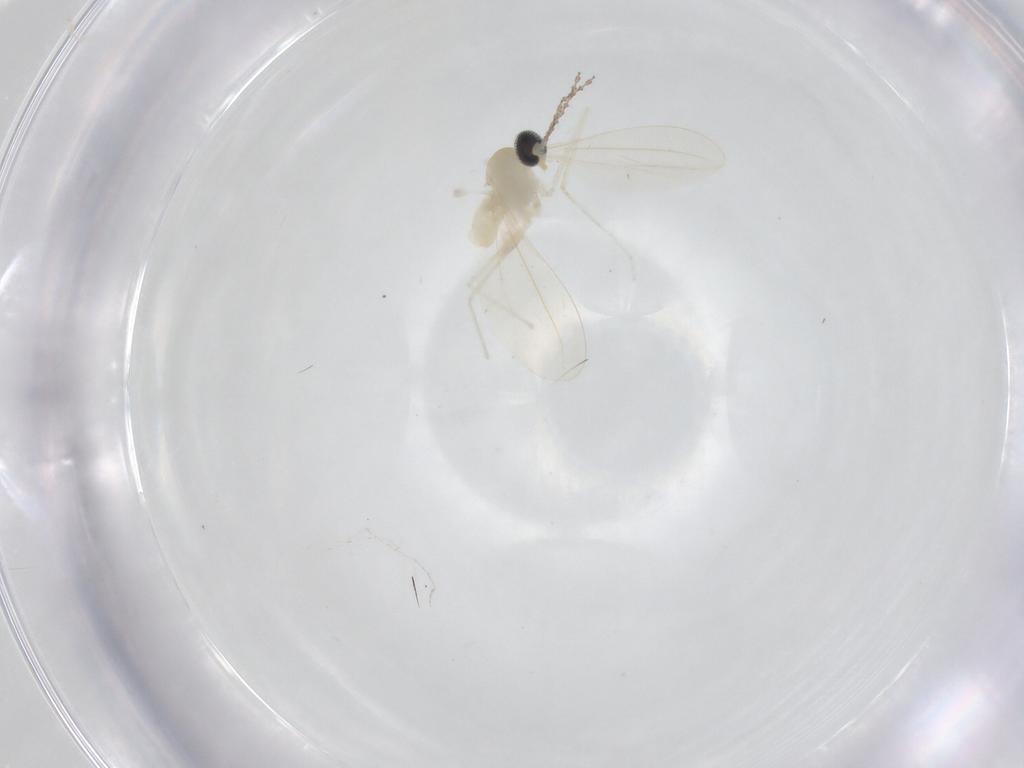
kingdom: Animalia
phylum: Arthropoda
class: Insecta
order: Diptera
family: Cecidomyiidae
